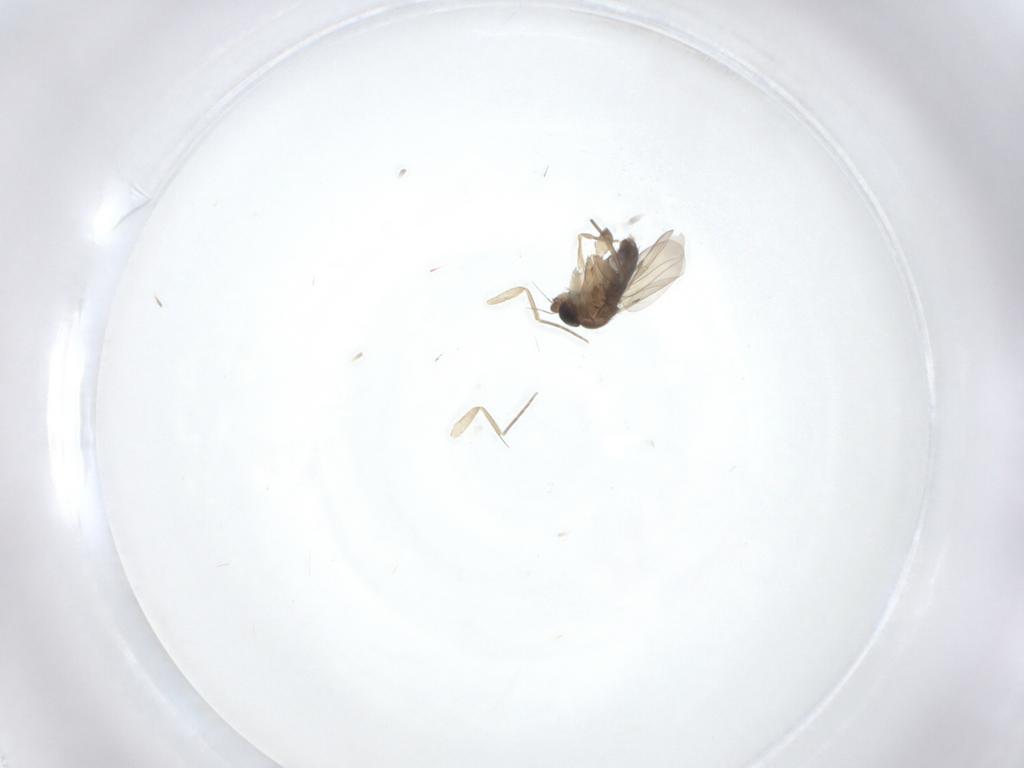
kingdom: Animalia
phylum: Arthropoda
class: Insecta
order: Diptera
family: Phoridae
